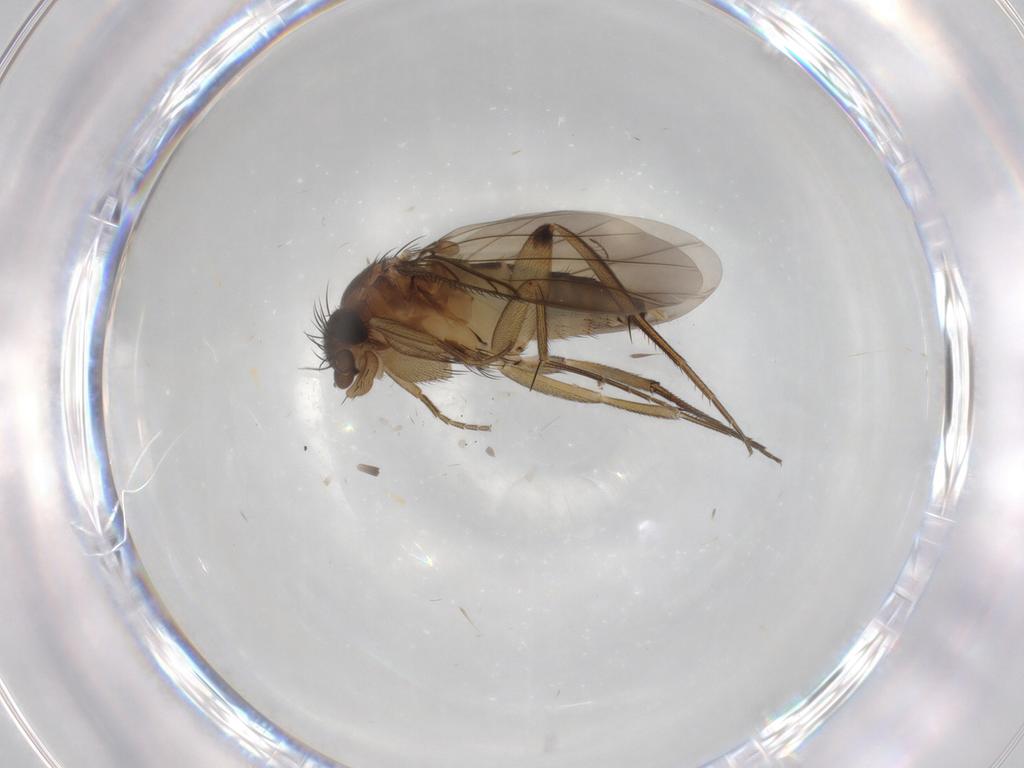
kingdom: Animalia
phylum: Arthropoda
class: Insecta
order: Diptera
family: Phoridae
